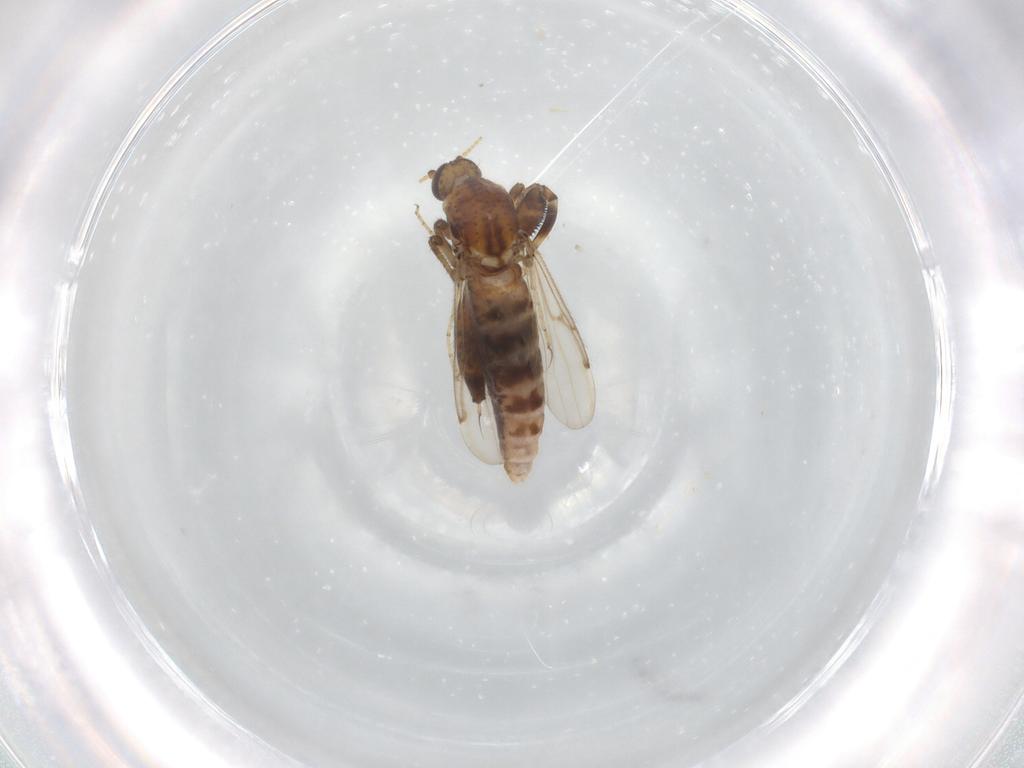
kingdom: Animalia
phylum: Arthropoda
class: Insecta
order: Diptera
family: Ceratopogonidae
